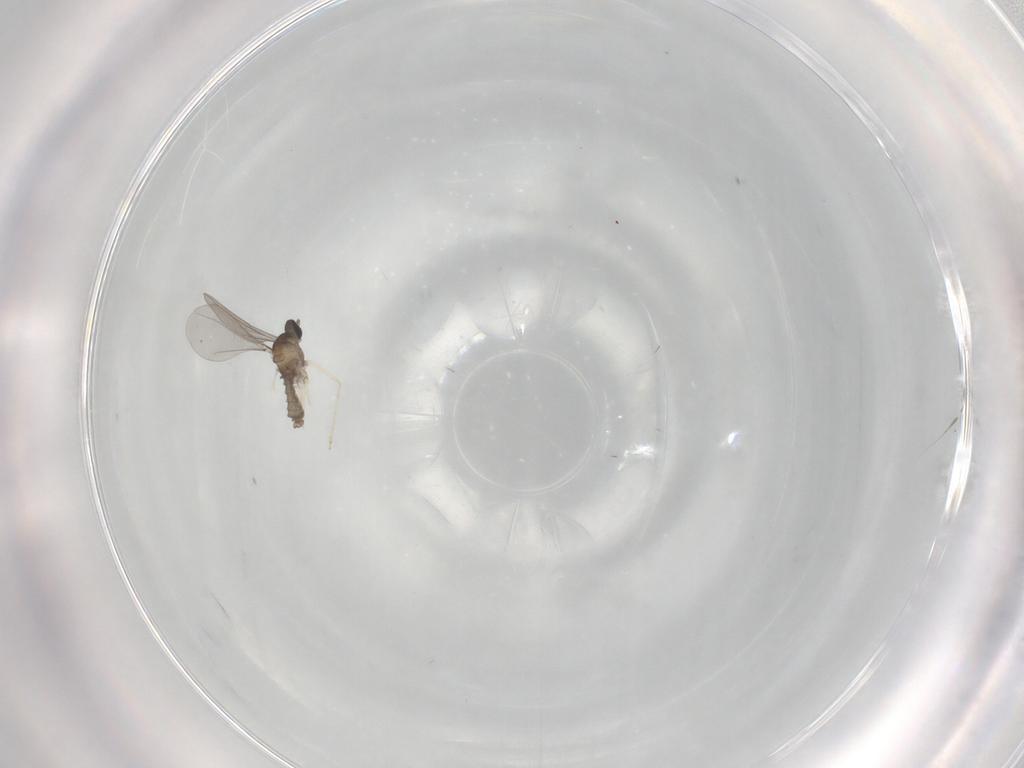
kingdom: Animalia
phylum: Arthropoda
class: Insecta
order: Diptera
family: Cecidomyiidae
